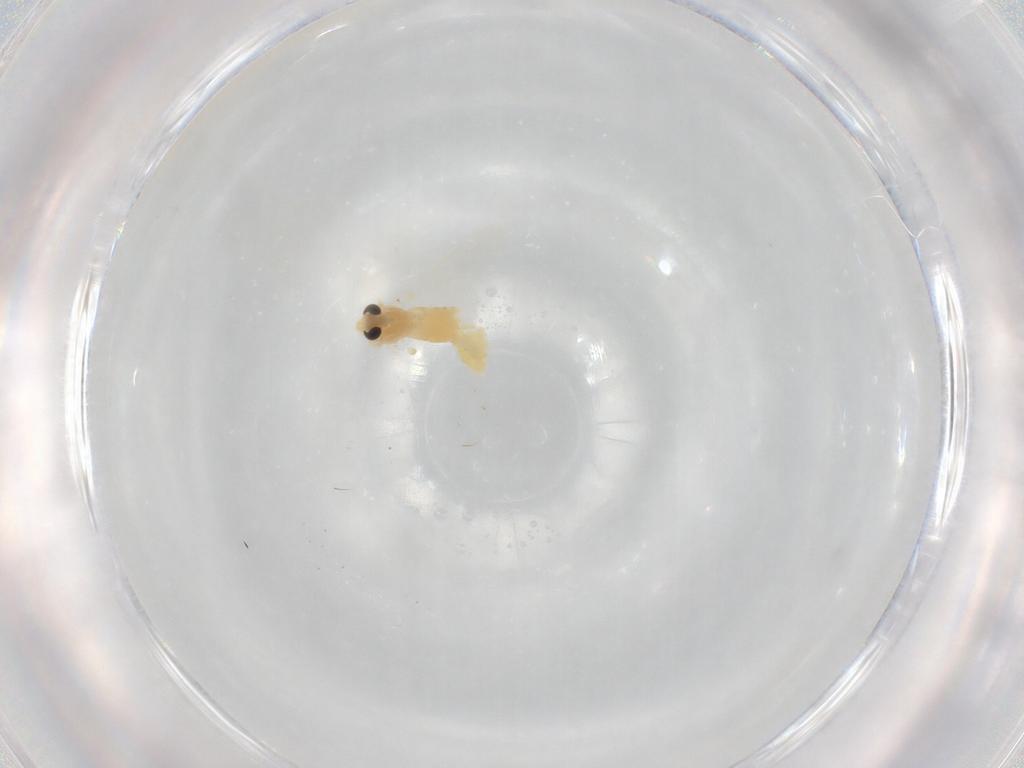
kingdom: Animalia
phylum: Arthropoda
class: Insecta
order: Diptera
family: Chironomidae
